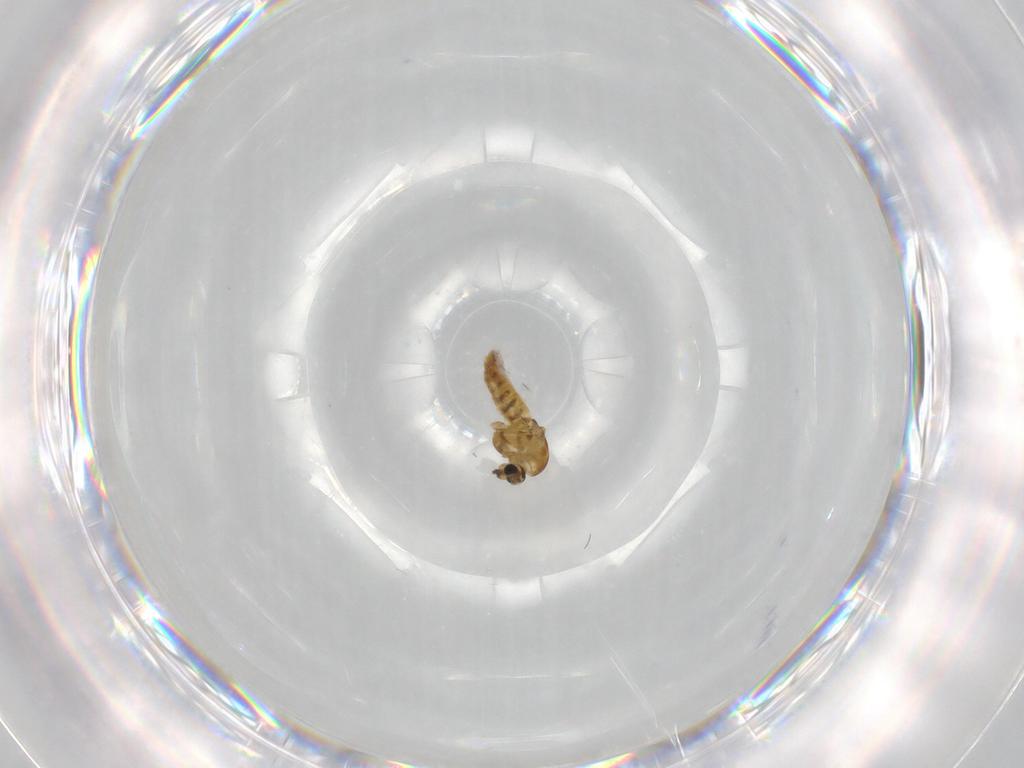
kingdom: Animalia
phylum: Arthropoda
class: Insecta
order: Diptera
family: Chironomidae
